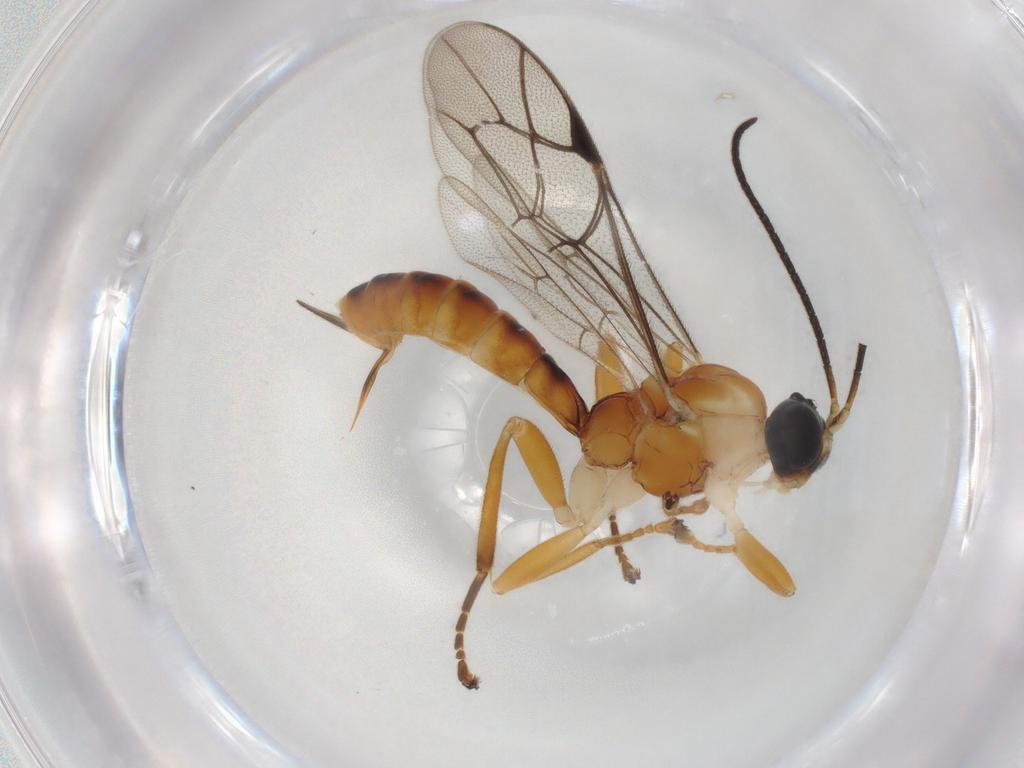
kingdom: Animalia
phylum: Arthropoda
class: Insecta
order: Hymenoptera
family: Ichneumonidae
